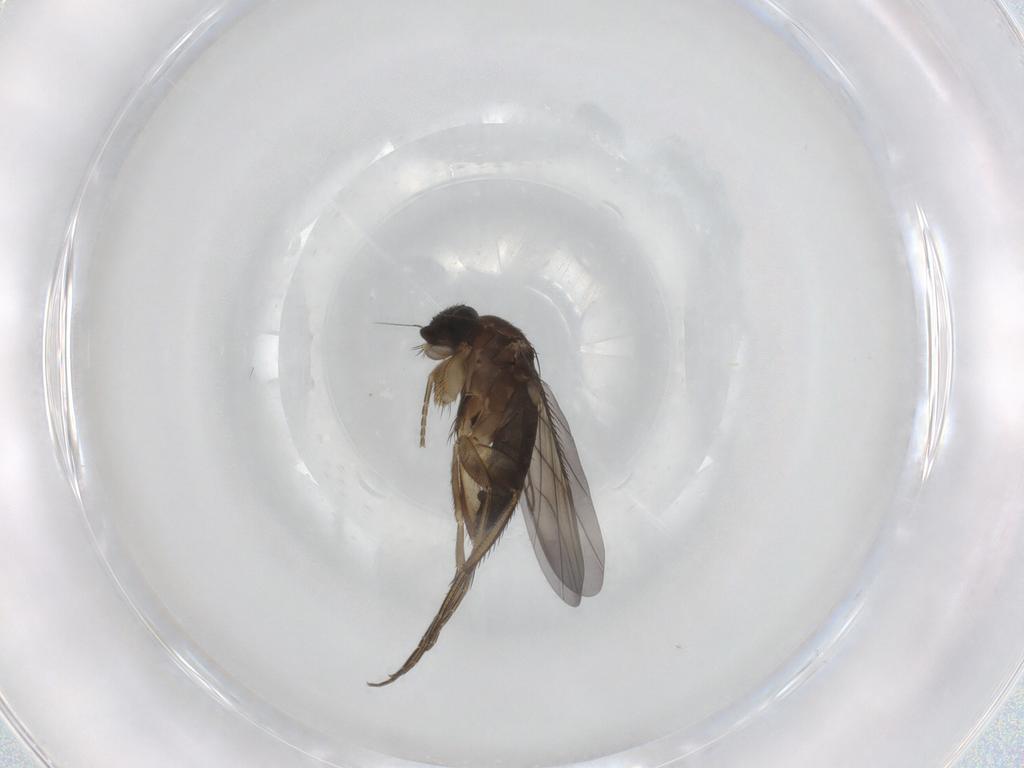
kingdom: Animalia
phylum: Arthropoda
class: Insecta
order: Diptera
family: Phoridae
